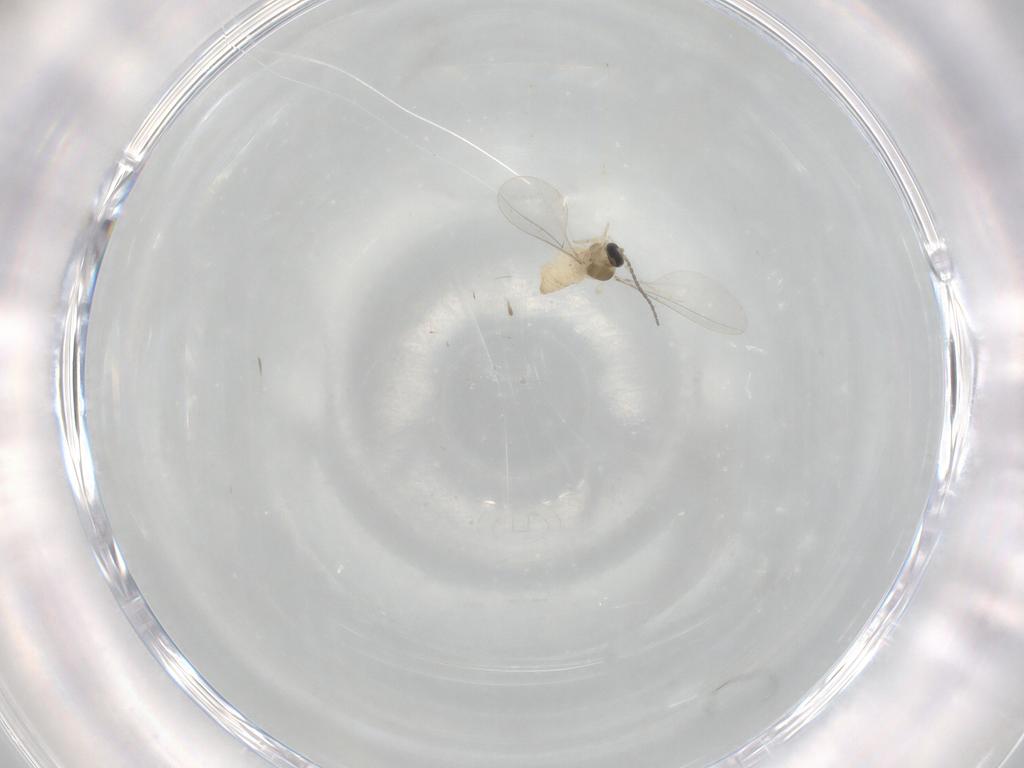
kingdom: Animalia
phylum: Arthropoda
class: Insecta
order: Diptera
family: Cecidomyiidae
